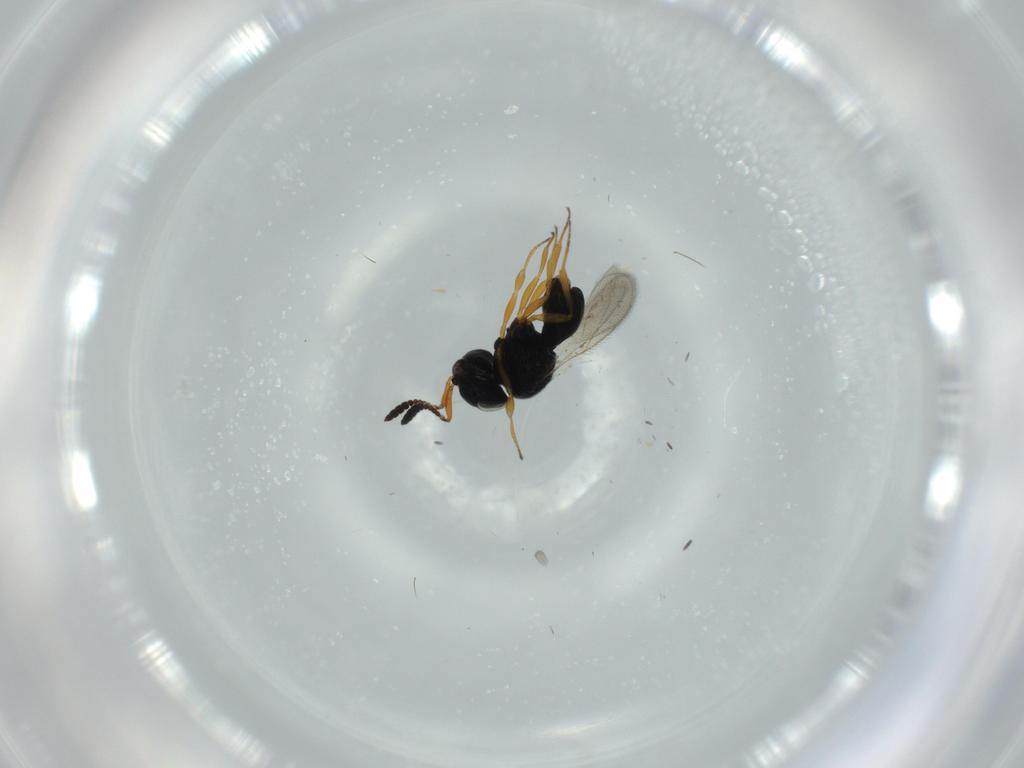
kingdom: Animalia
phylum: Arthropoda
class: Insecta
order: Hymenoptera
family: Scelionidae
